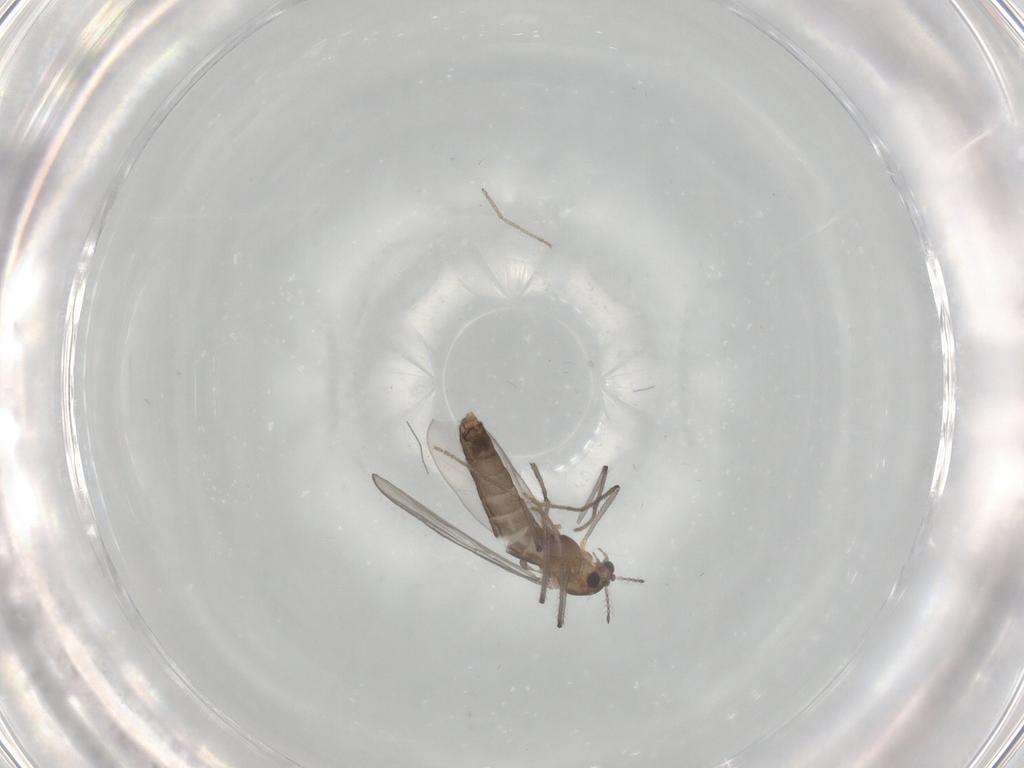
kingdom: Animalia
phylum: Arthropoda
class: Insecta
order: Diptera
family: Chironomidae
